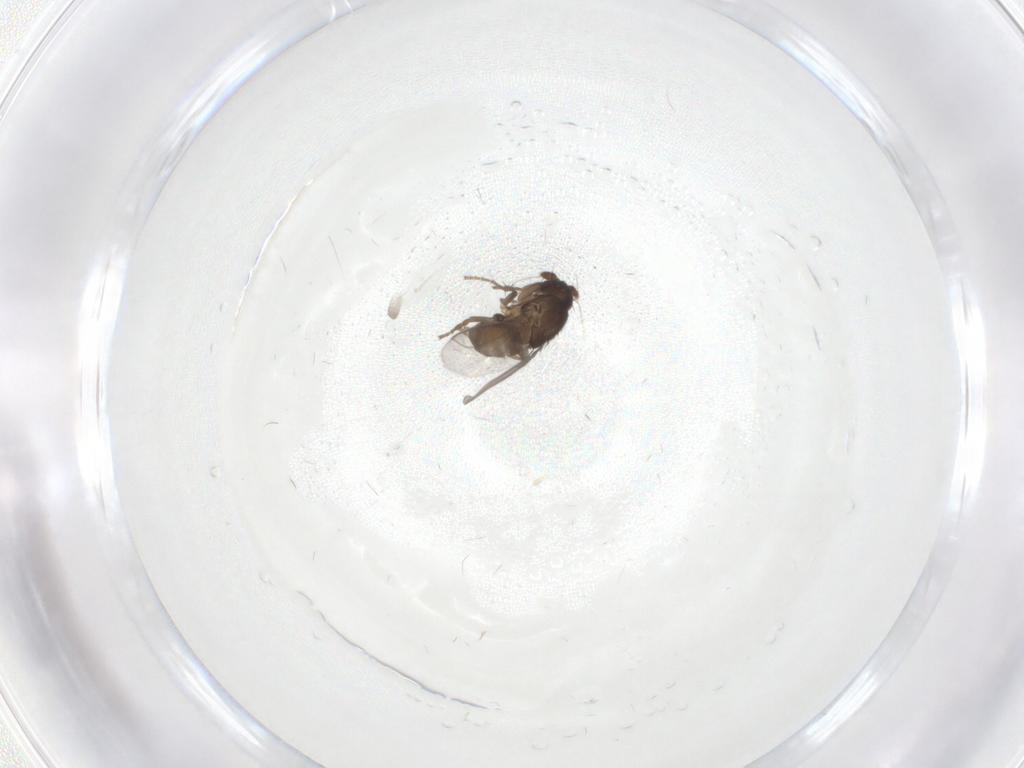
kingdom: Animalia
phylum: Arthropoda
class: Insecta
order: Diptera
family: Phoridae
